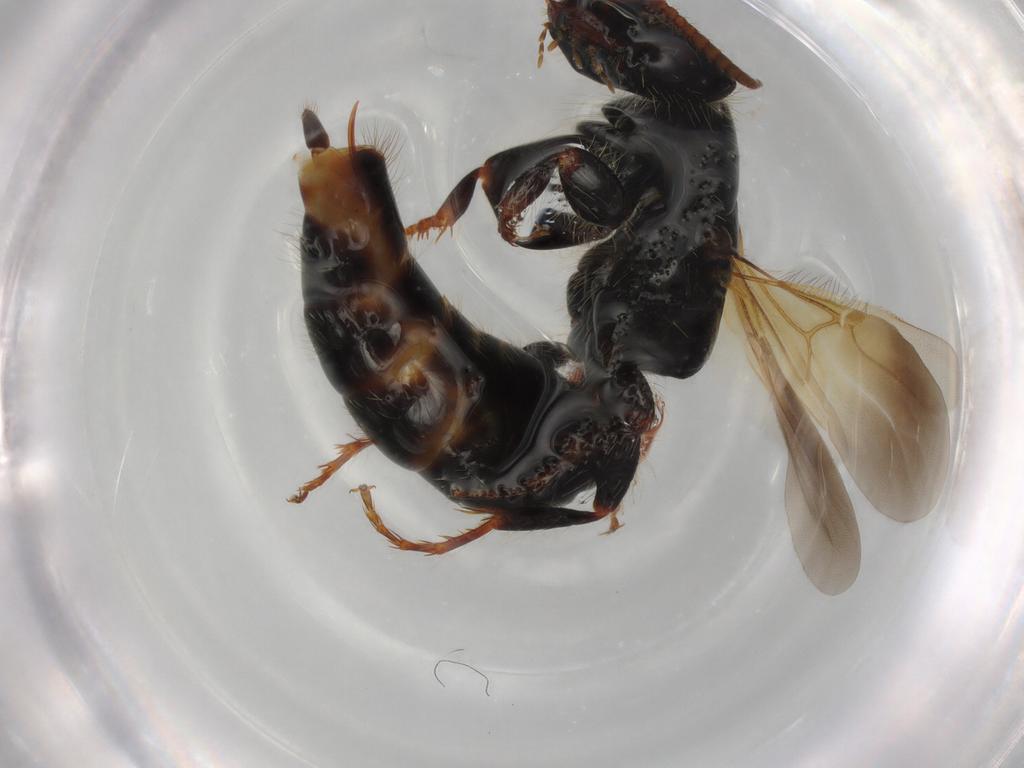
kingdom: Animalia
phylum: Arthropoda
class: Insecta
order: Hymenoptera
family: Bethylidae
